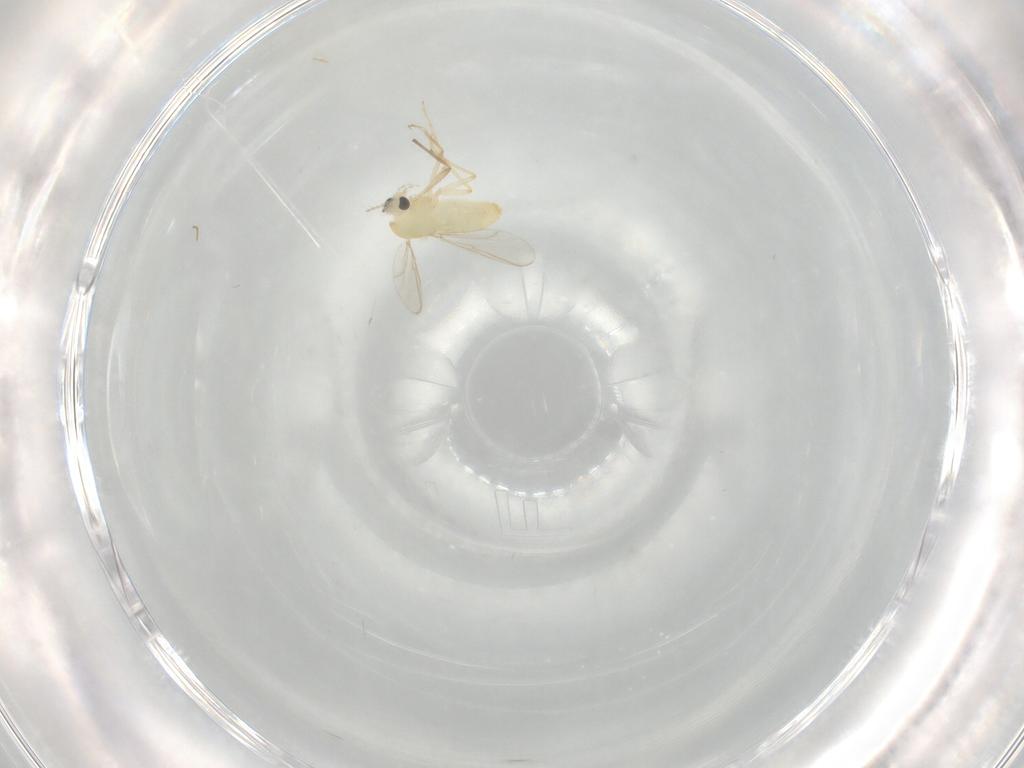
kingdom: Animalia
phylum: Arthropoda
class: Insecta
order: Diptera
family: Chironomidae
